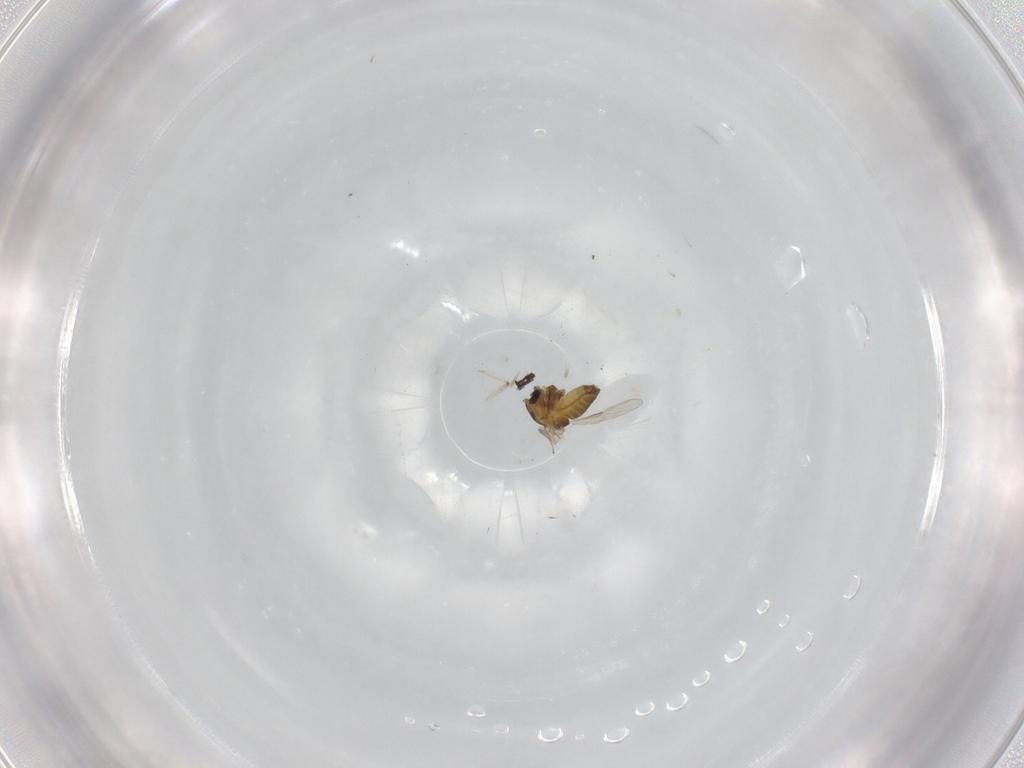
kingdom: Animalia
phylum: Arthropoda
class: Insecta
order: Diptera
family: Chironomidae
